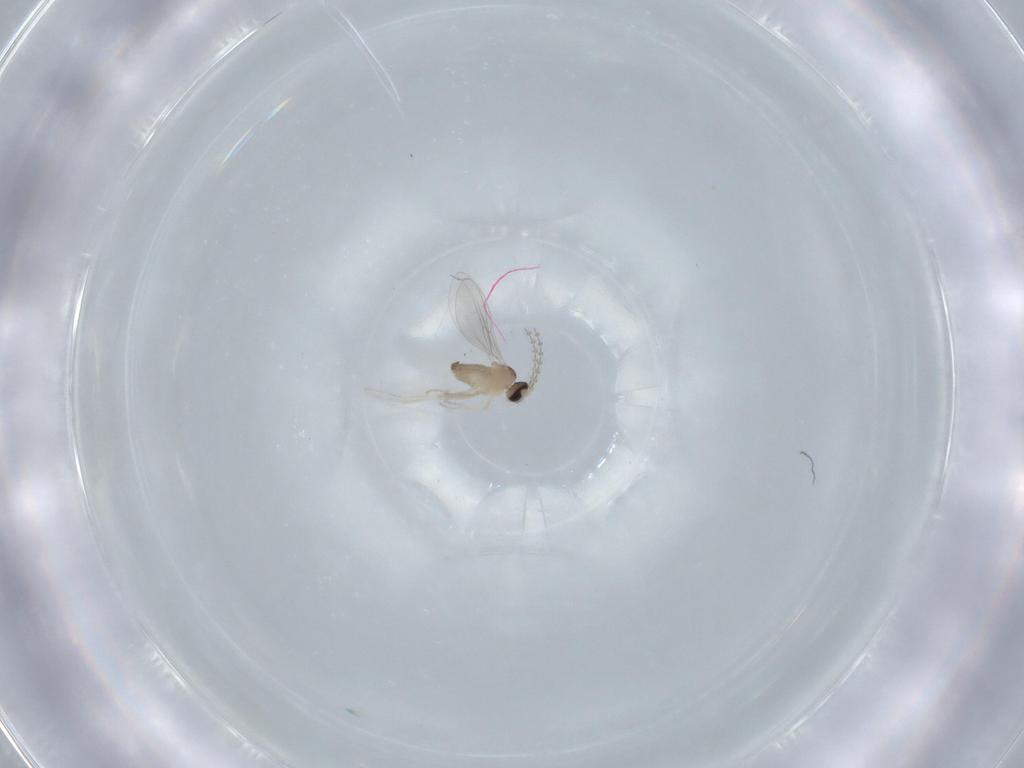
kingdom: Animalia
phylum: Arthropoda
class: Insecta
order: Diptera
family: Cecidomyiidae
